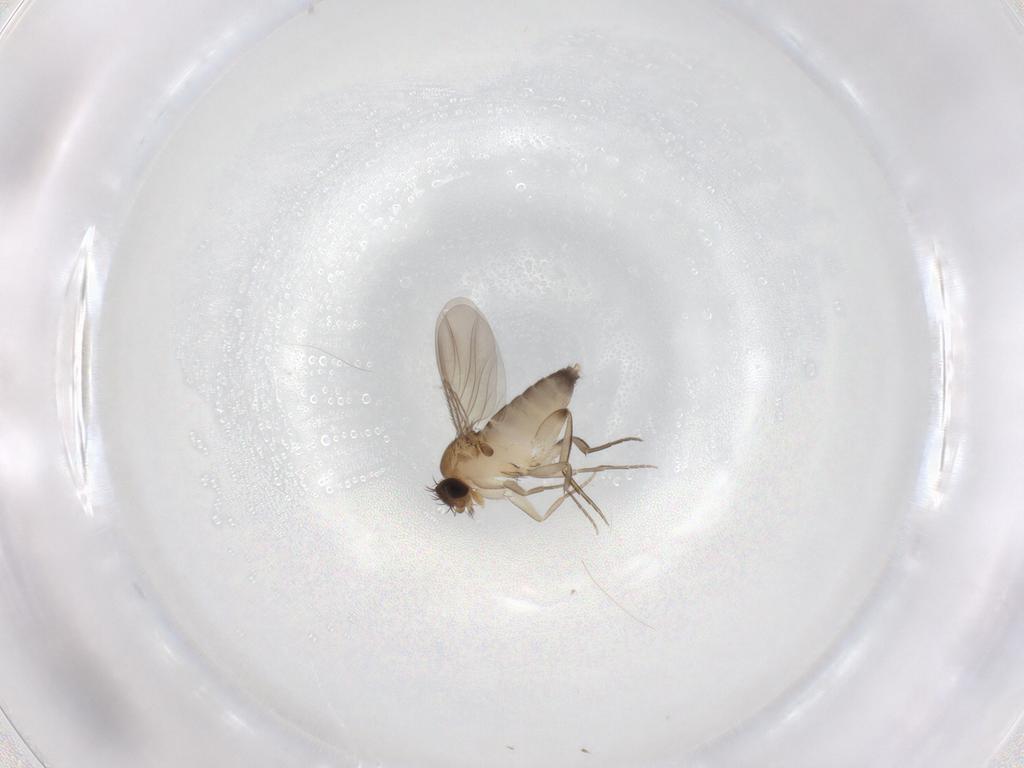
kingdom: Animalia
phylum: Arthropoda
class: Insecta
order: Diptera
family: Phoridae
